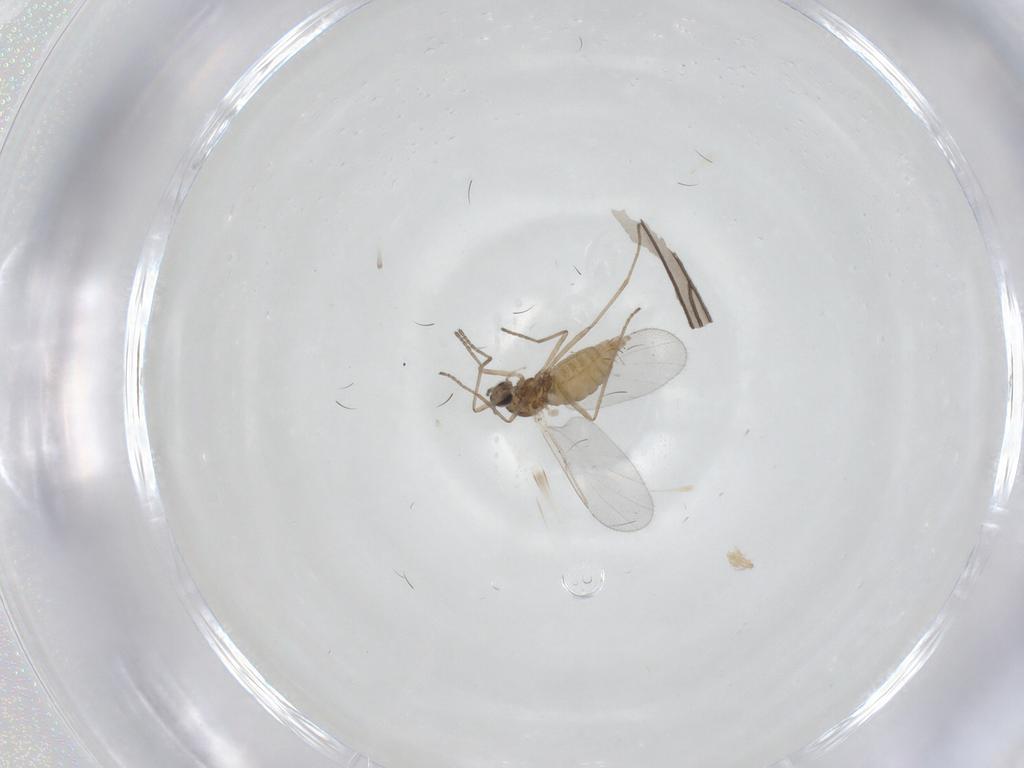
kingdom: Animalia
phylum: Arthropoda
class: Insecta
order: Diptera
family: Cecidomyiidae
